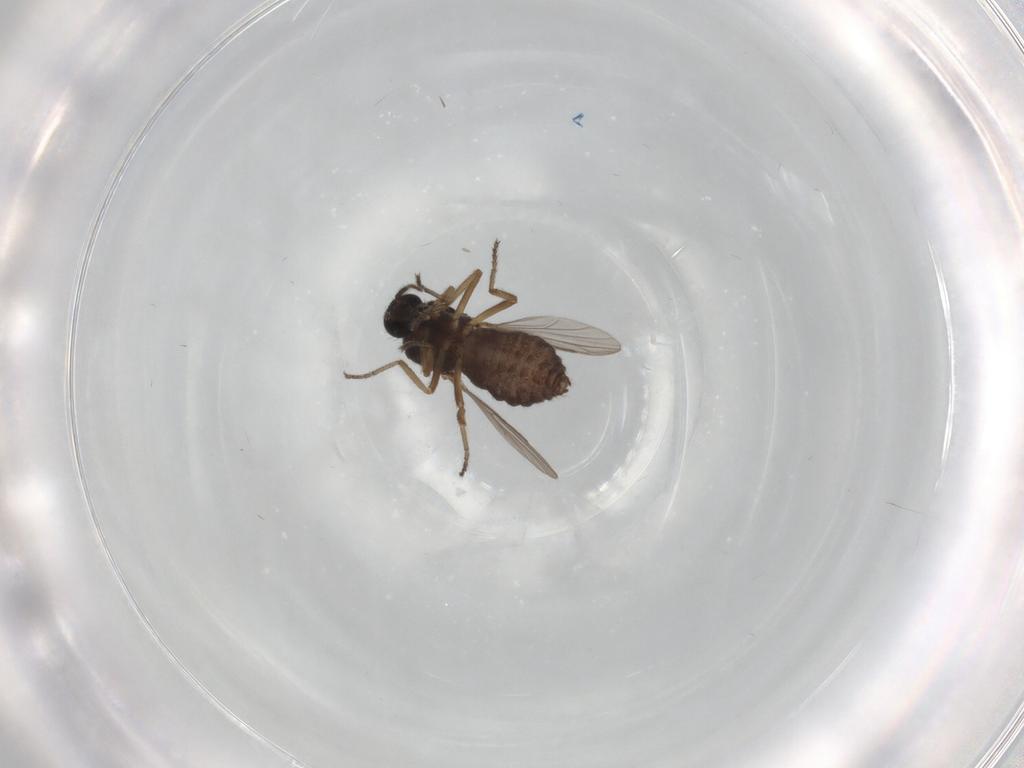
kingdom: Animalia
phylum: Arthropoda
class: Insecta
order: Diptera
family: Ceratopogonidae
